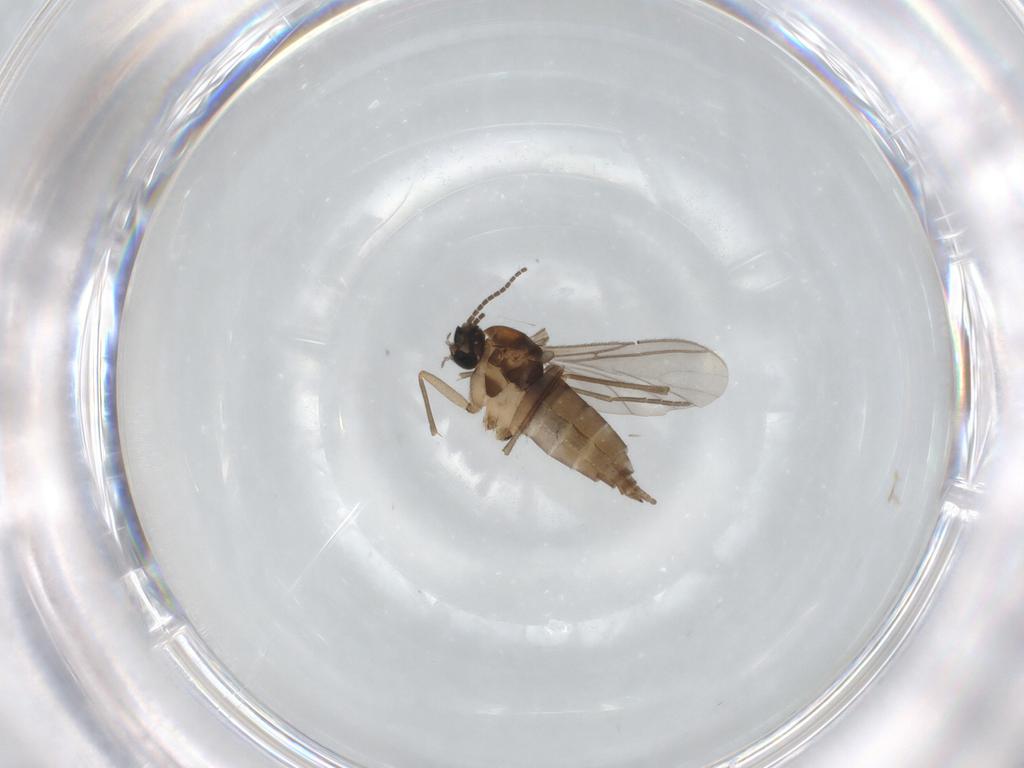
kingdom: Animalia
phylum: Arthropoda
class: Insecta
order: Diptera
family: Sciaridae
